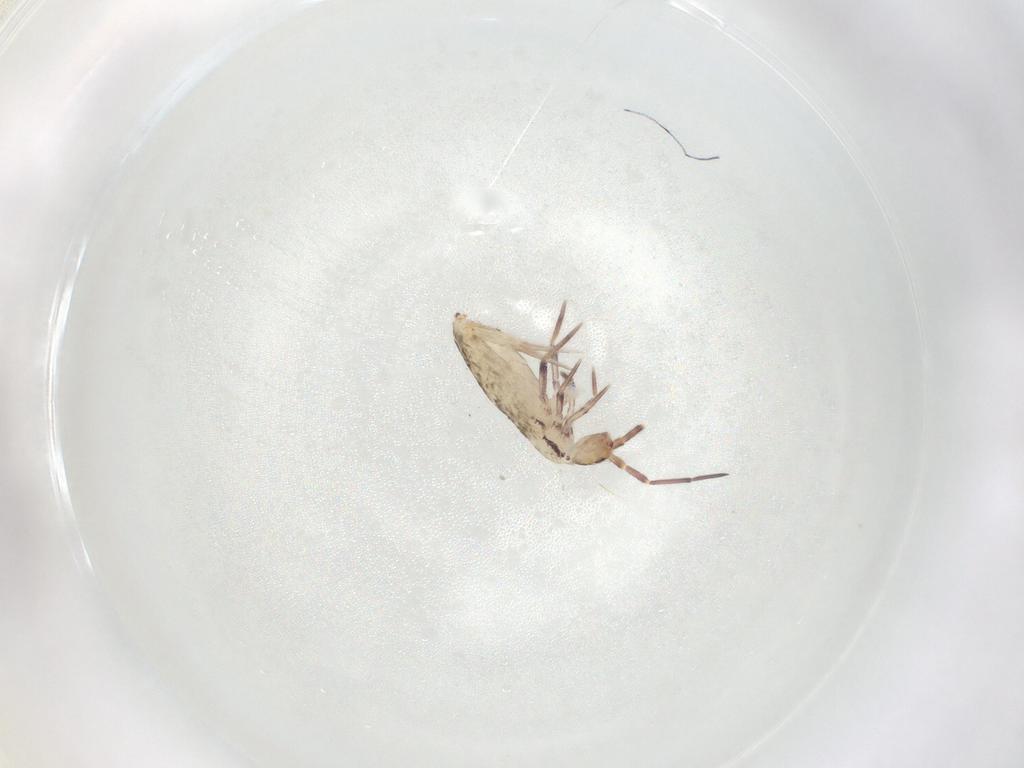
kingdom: Animalia
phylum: Arthropoda
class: Collembola
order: Entomobryomorpha
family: Entomobryidae
